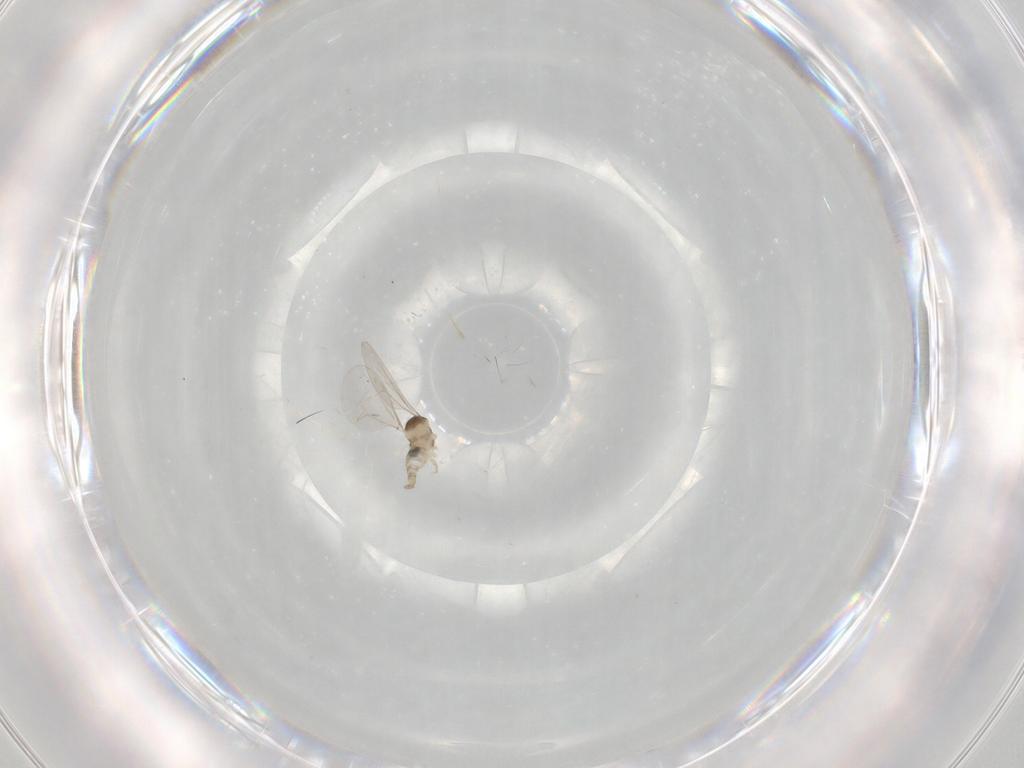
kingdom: Animalia
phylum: Arthropoda
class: Insecta
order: Diptera
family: Cecidomyiidae
